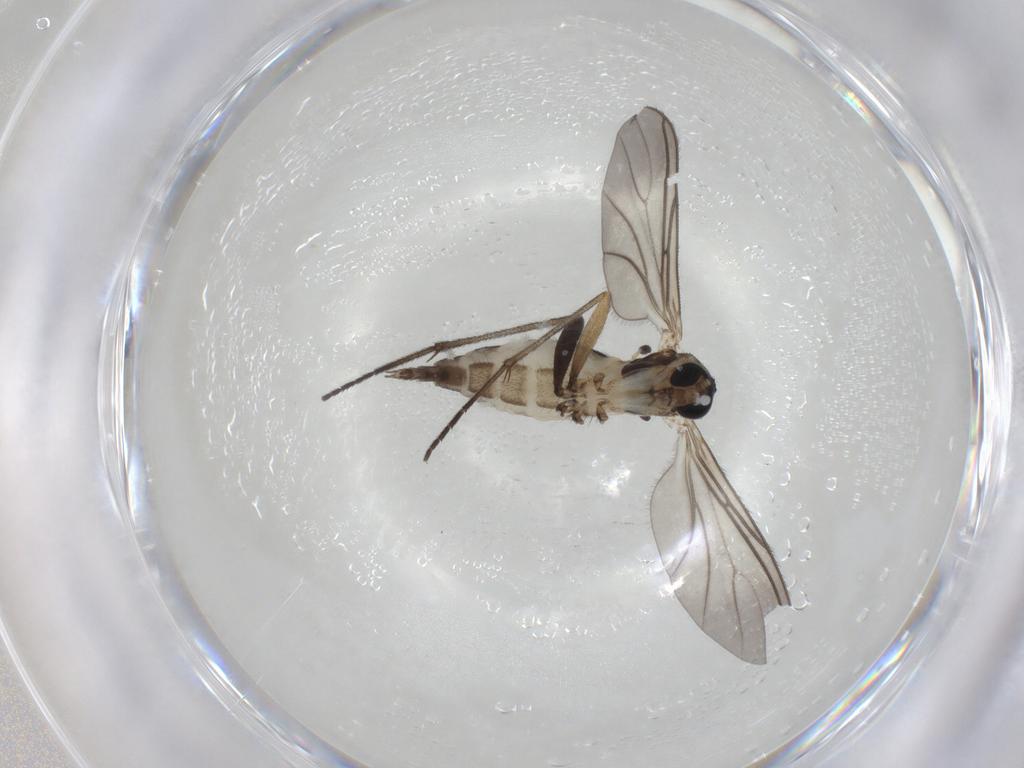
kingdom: Animalia
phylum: Arthropoda
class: Insecta
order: Diptera
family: Sciaridae
